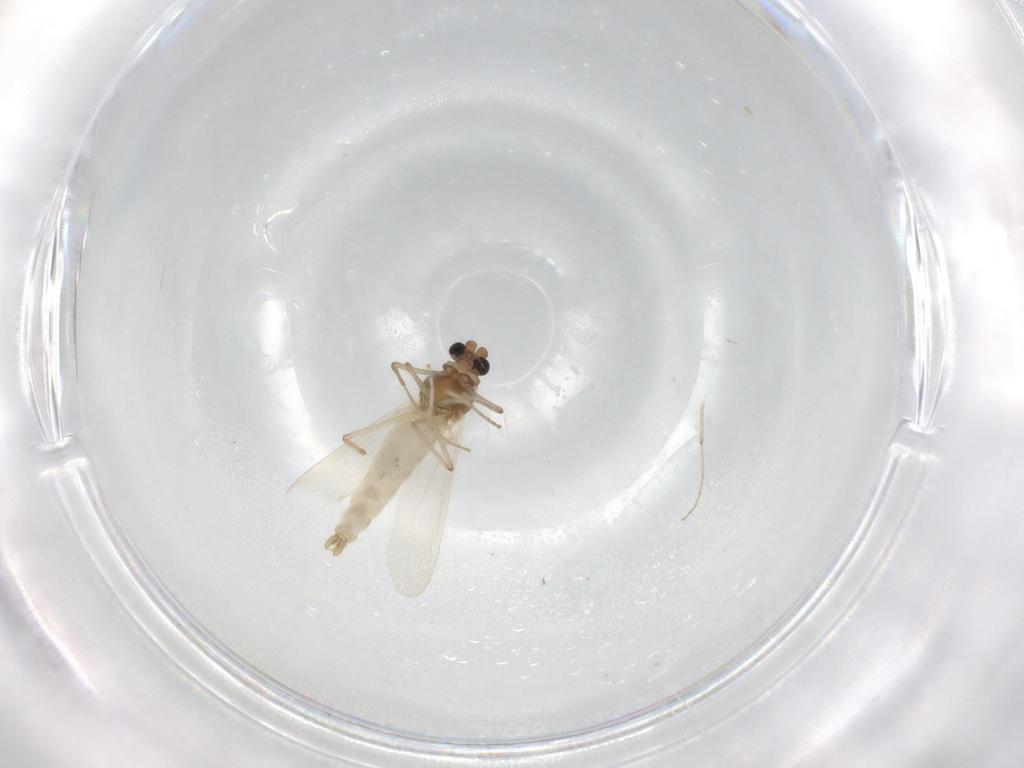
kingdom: Animalia
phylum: Arthropoda
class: Insecta
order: Diptera
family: Chironomidae
